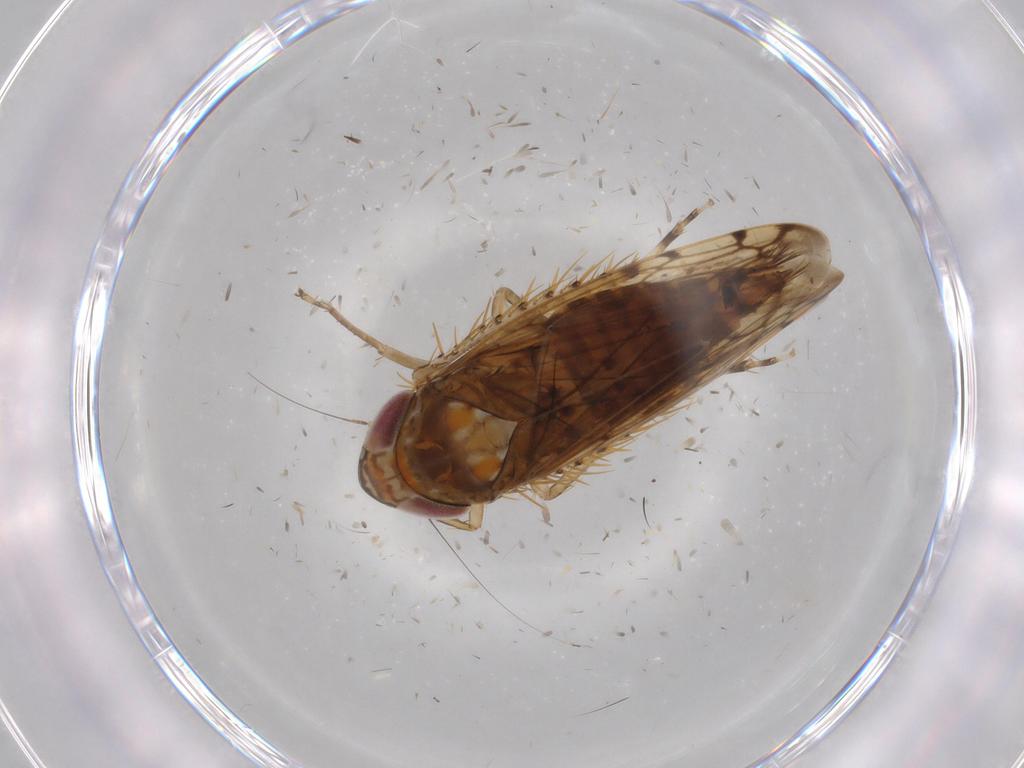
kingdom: Animalia
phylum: Arthropoda
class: Insecta
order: Hemiptera
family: Cicadellidae
